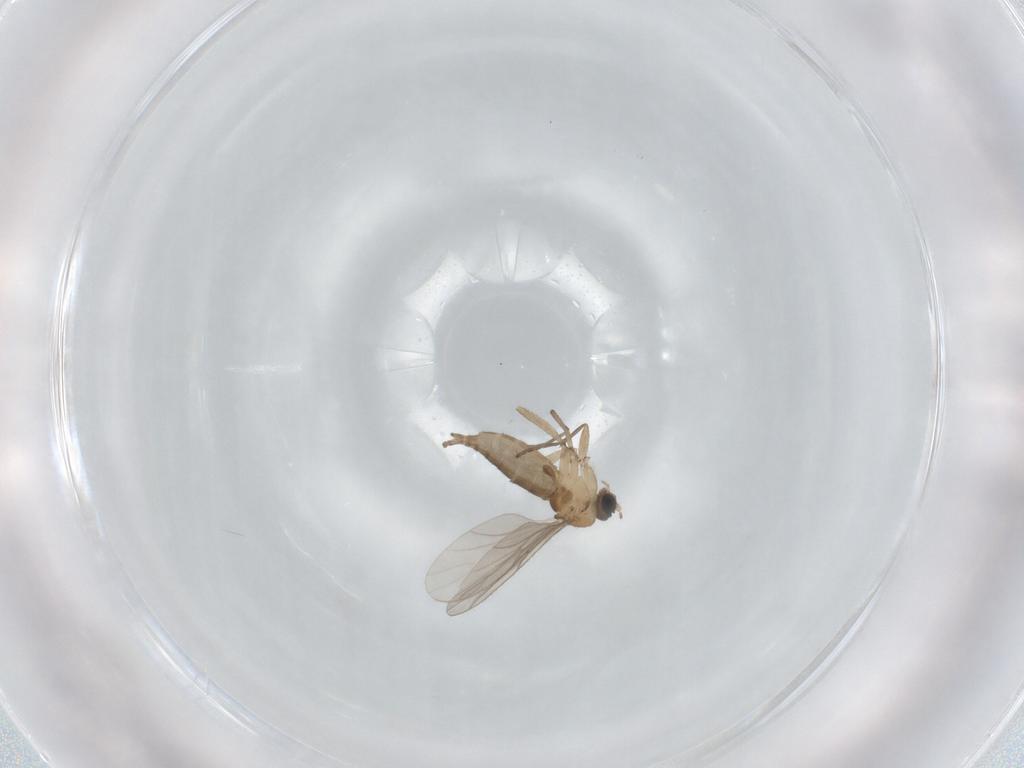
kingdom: Animalia
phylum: Arthropoda
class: Insecta
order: Diptera
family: Sciaridae
